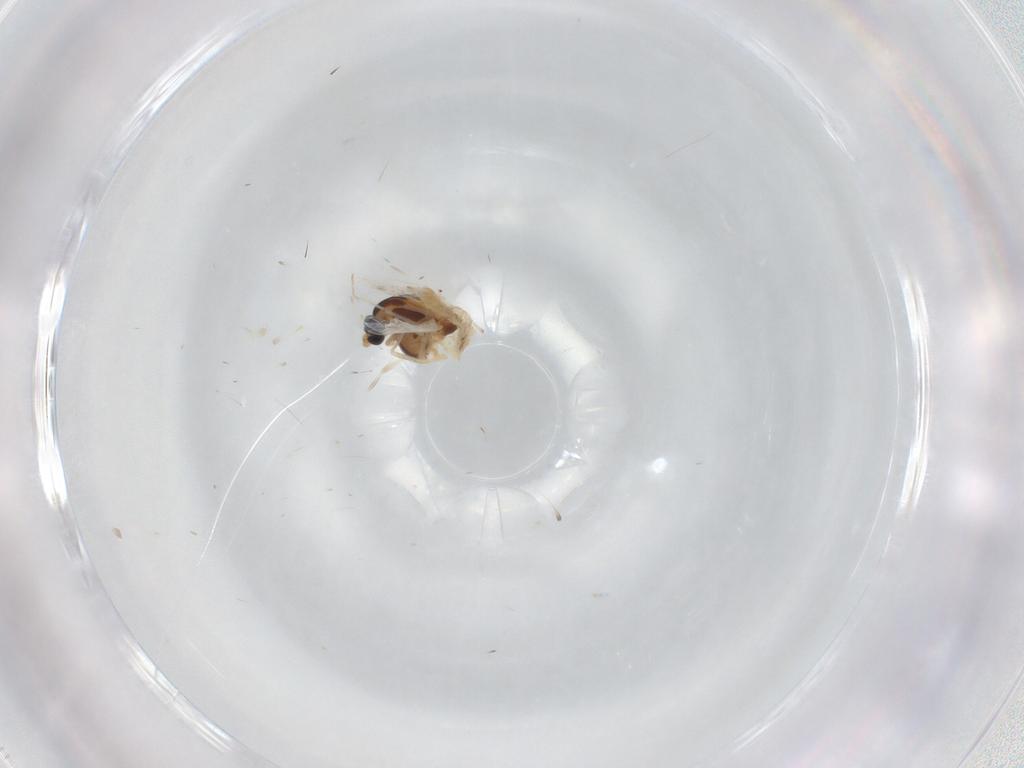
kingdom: Animalia
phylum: Arthropoda
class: Insecta
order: Diptera
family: Chironomidae
